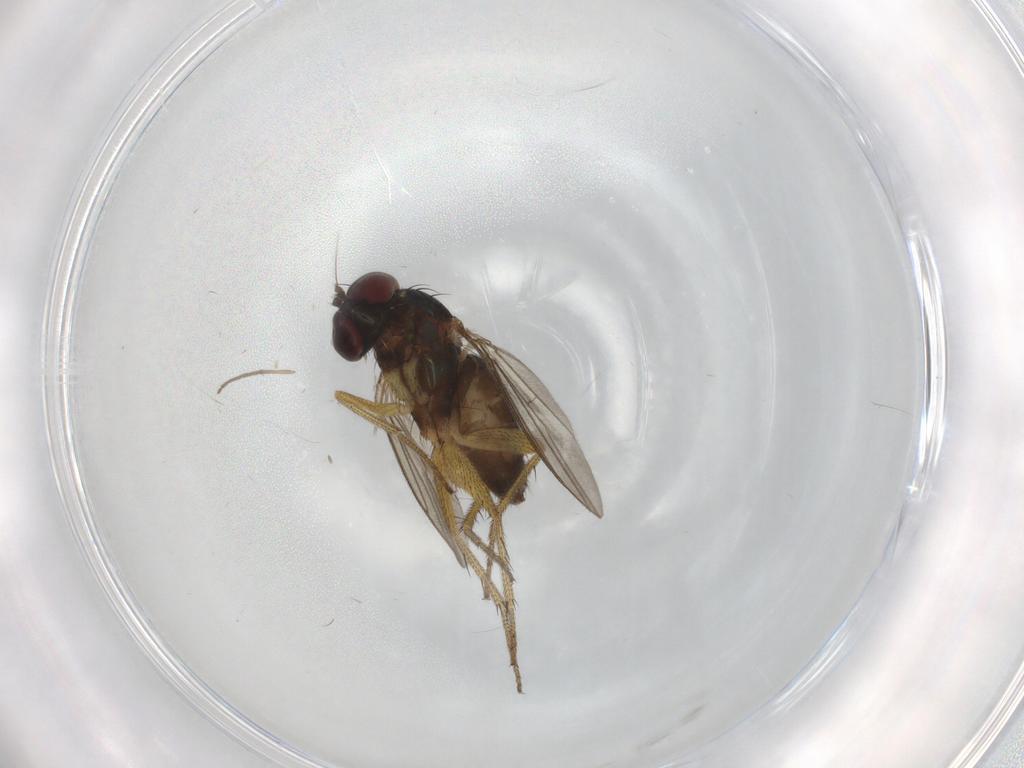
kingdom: Animalia
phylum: Arthropoda
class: Insecta
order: Diptera
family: Chironomidae
